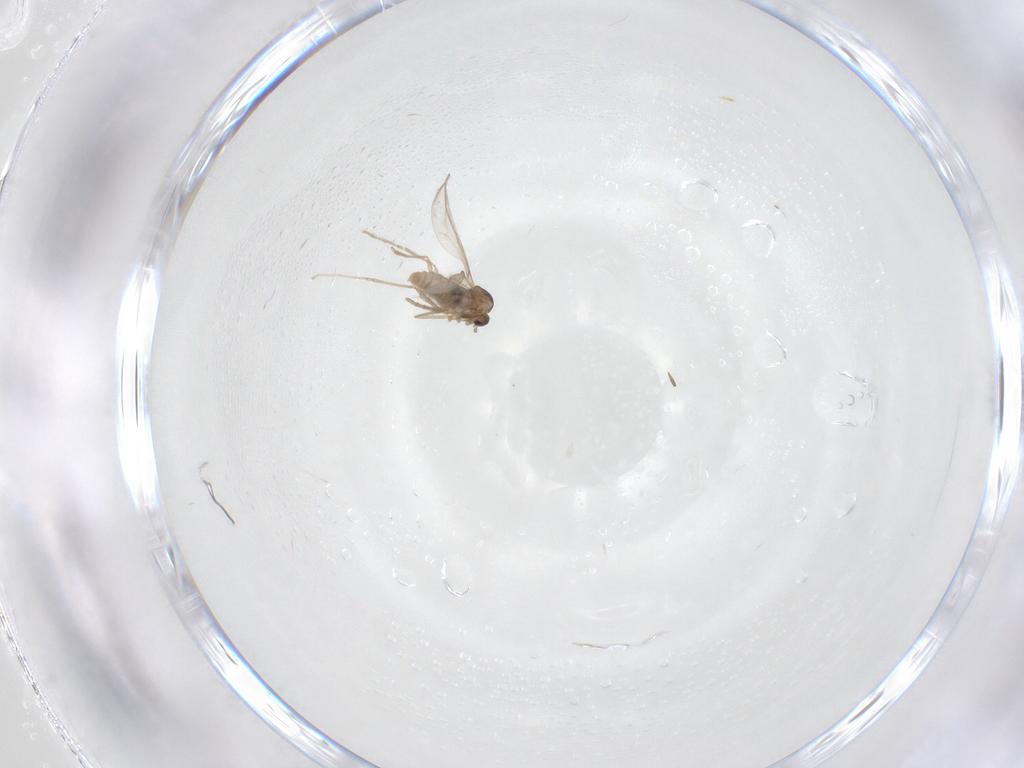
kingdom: Animalia
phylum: Arthropoda
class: Insecta
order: Diptera
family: Cecidomyiidae
